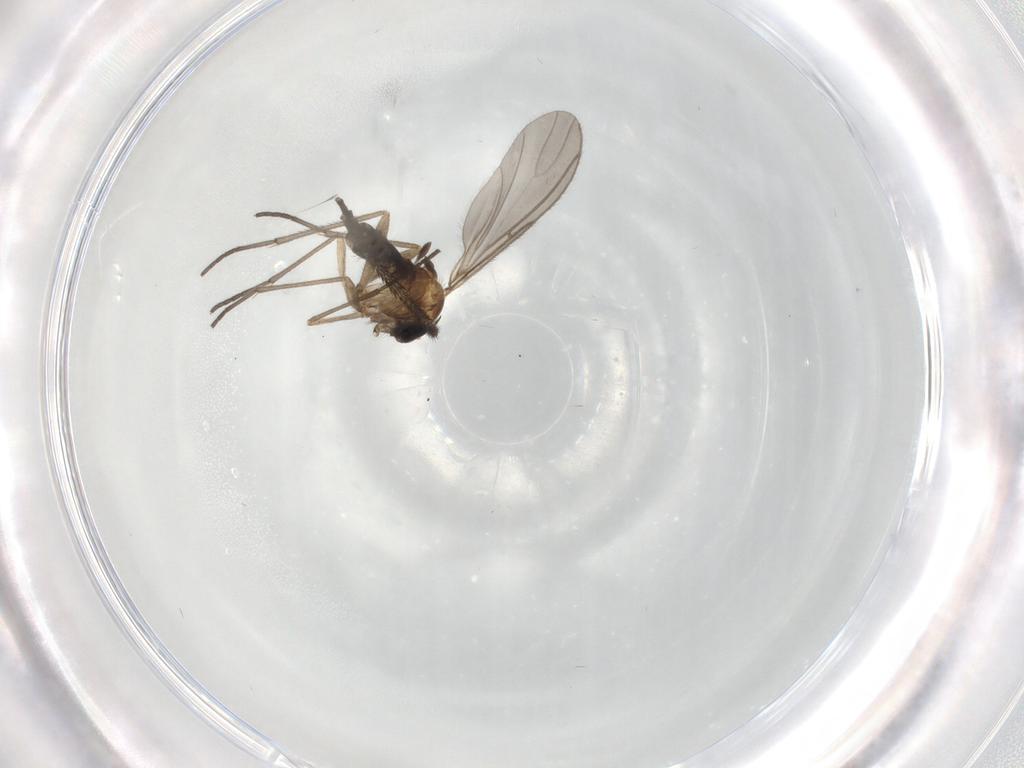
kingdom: Animalia
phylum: Arthropoda
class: Insecta
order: Diptera
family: Sciaridae
